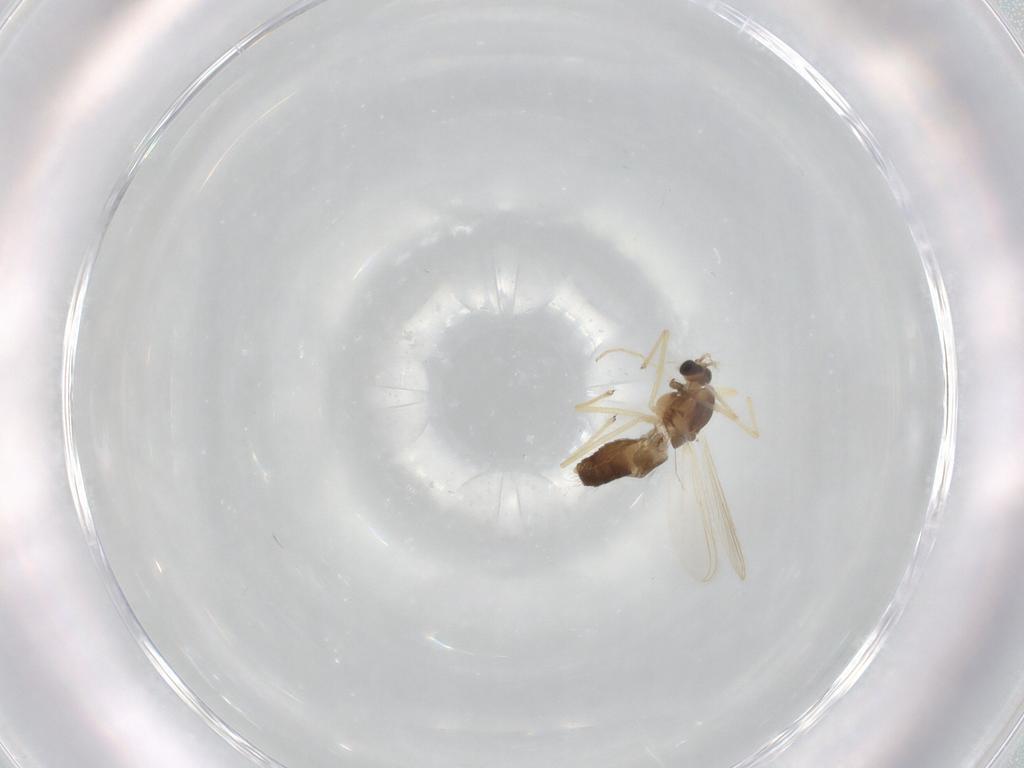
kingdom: Animalia
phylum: Arthropoda
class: Insecta
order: Diptera
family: Chironomidae
